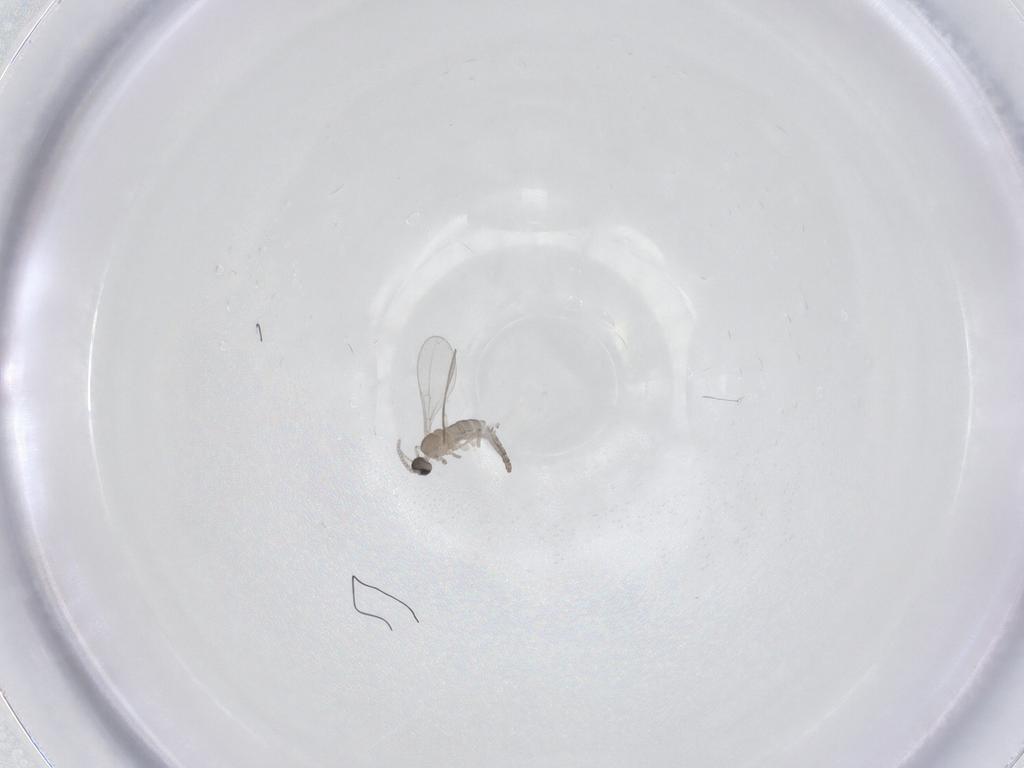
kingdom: Animalia
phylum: Arthropoda
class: Insecta
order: Diptera
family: Cecidomyiidae
